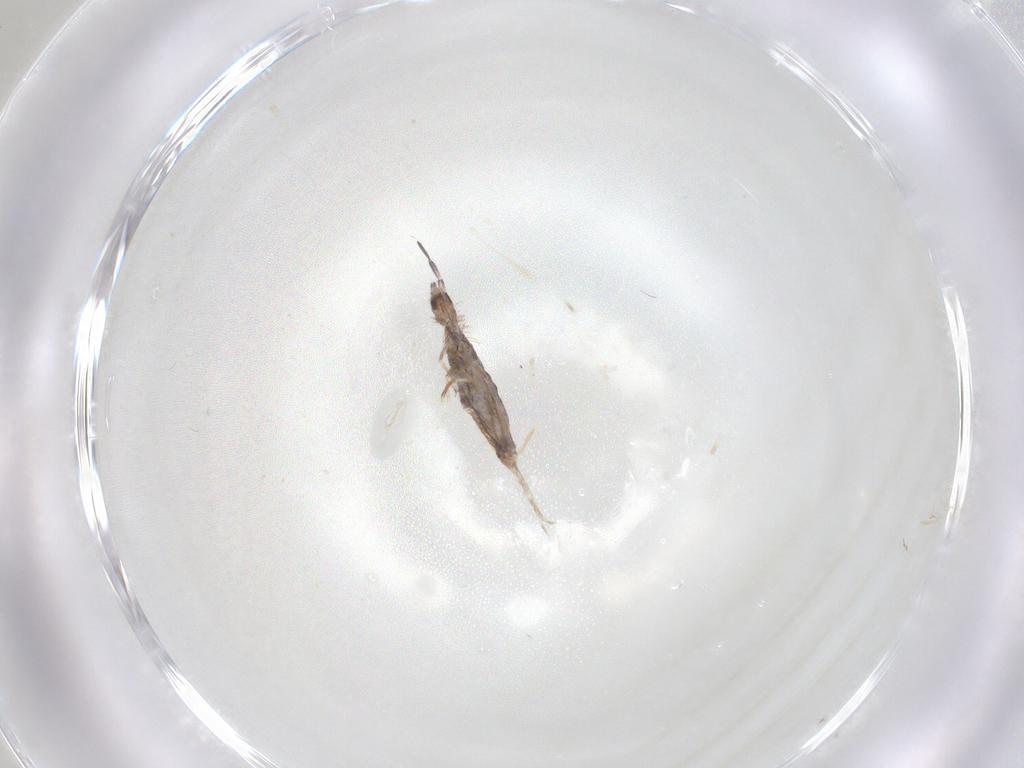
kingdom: Animalia
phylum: Arthropoda
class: Collembola
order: Poduromorpha
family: Hypogastruridae
